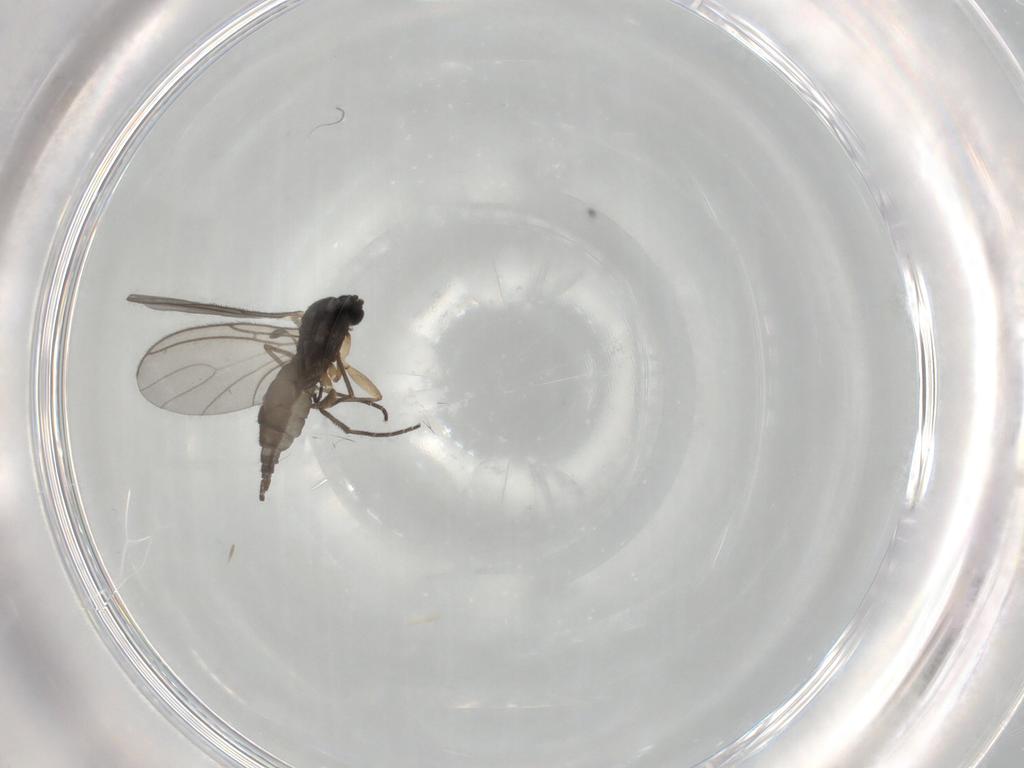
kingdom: Animalia
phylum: Arthropoda
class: Insecta
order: Diptera
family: Sciaridae
